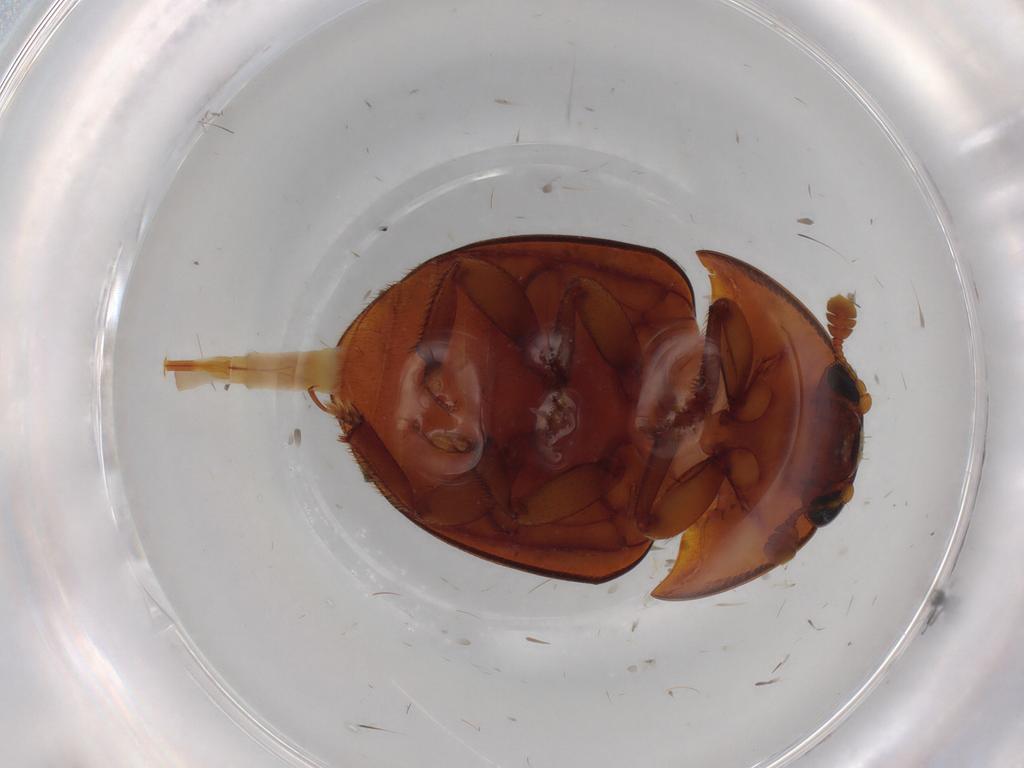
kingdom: Animalia
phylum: Arthropoda
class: Insecta
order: Coleoptera
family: Nitidulidae
